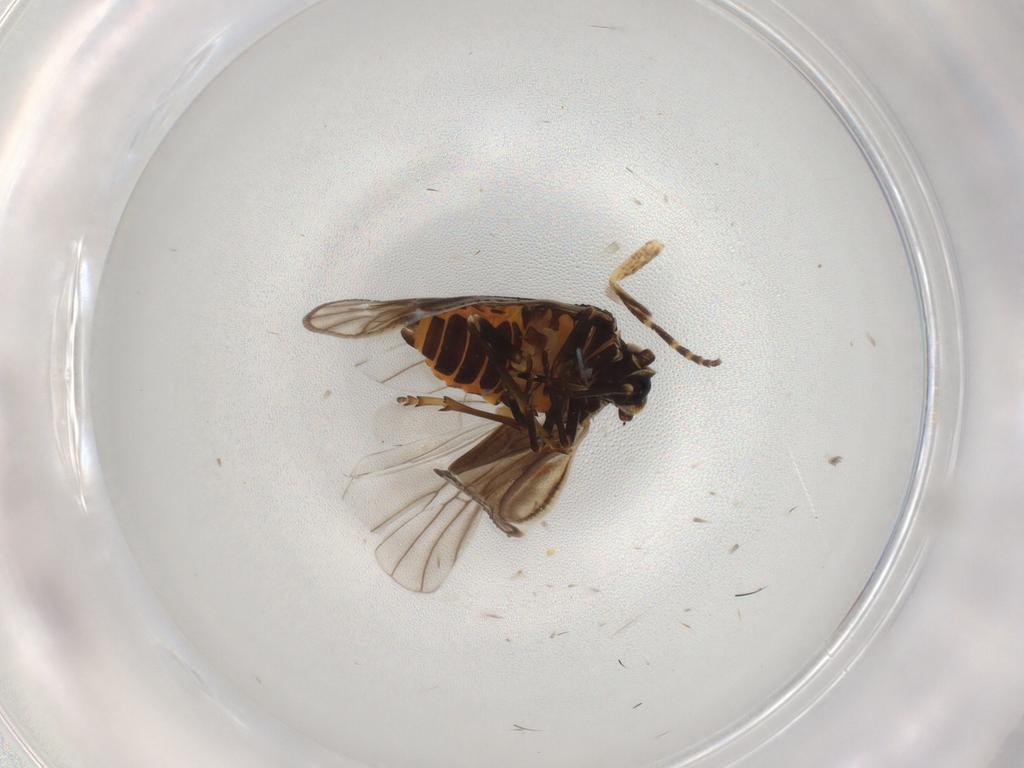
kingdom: Animalia
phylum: Arthropoda
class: Insecta
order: Hemiptera
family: Meenoplidae
